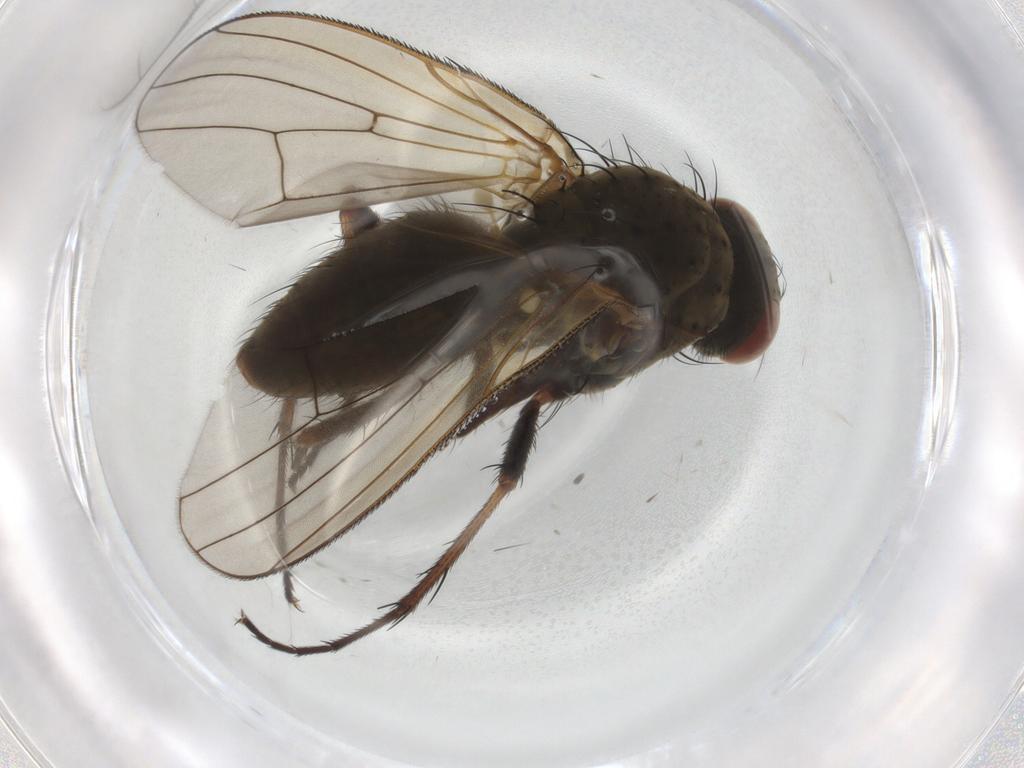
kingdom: Animalia
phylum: Arthropoda
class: Insecta
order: Diptera
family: Anthomyiidae
